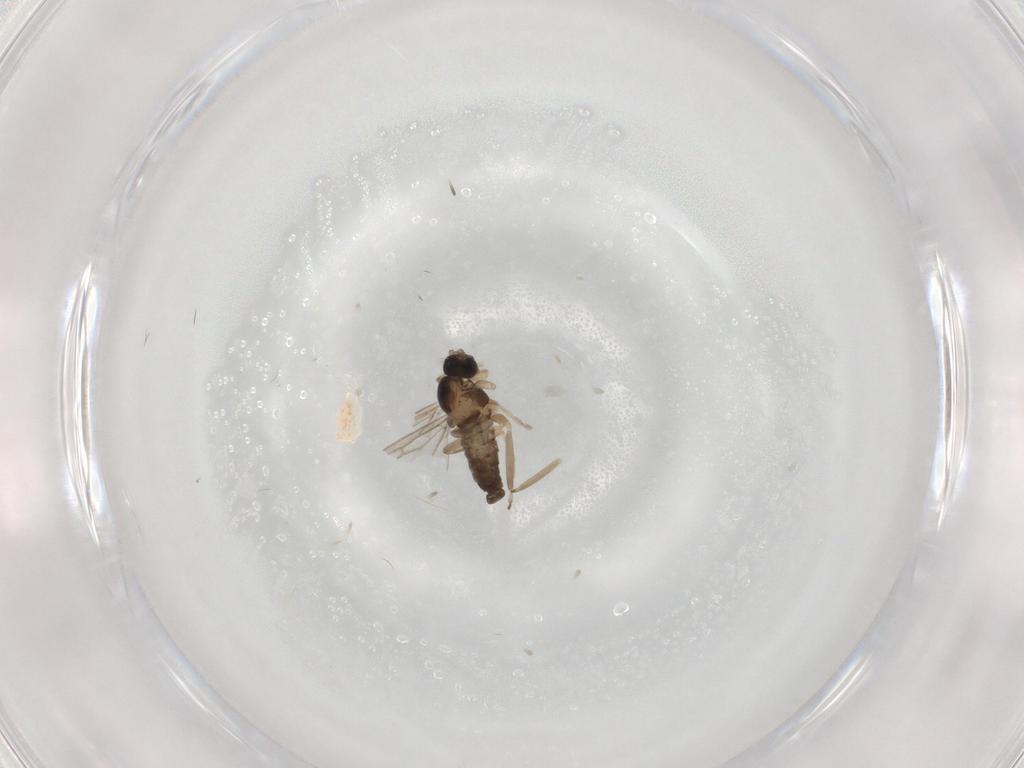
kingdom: Animalia
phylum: Arthropoda
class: Insecta
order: Diptera
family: Cecidomyiidae
